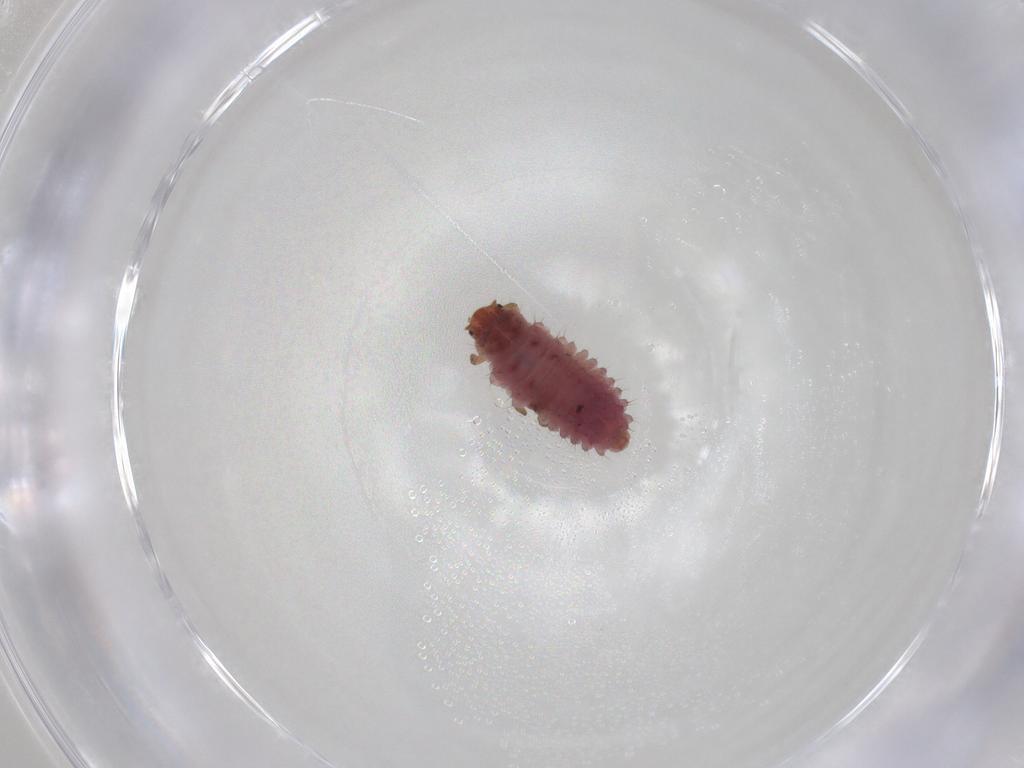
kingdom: Animalia
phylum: Arthropoda
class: Insecta
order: Coleoptera
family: Coccinellidae
